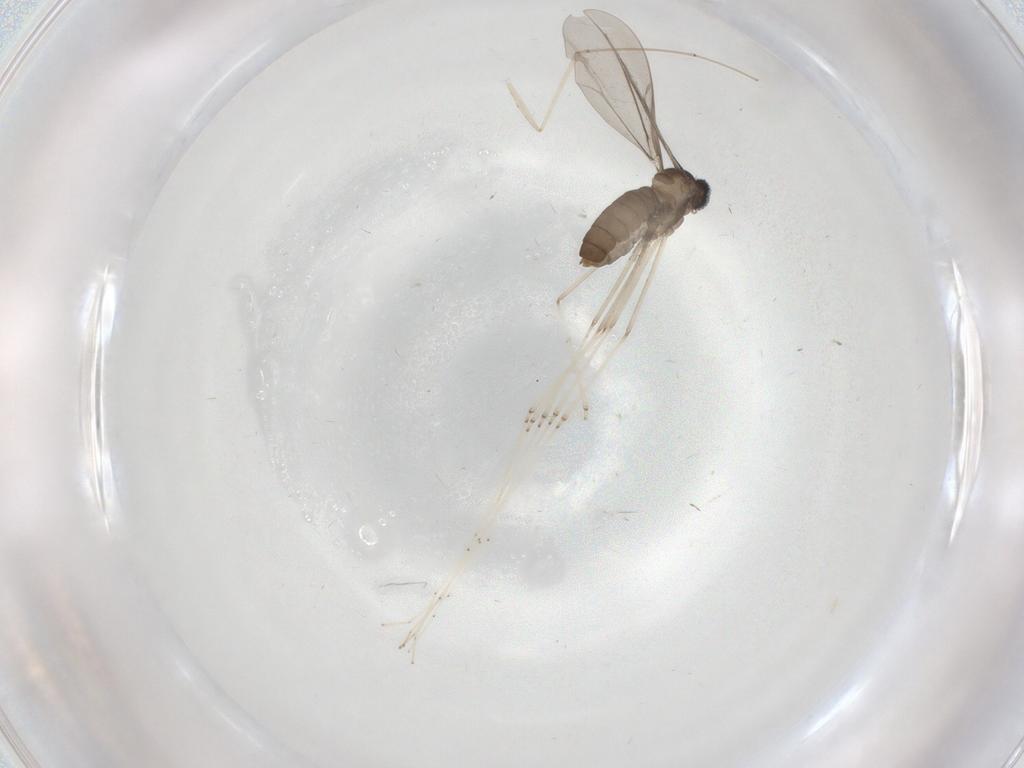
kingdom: Animalia
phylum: Arthropoda
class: Insecta
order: Diptera
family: Cecidomyiidae
